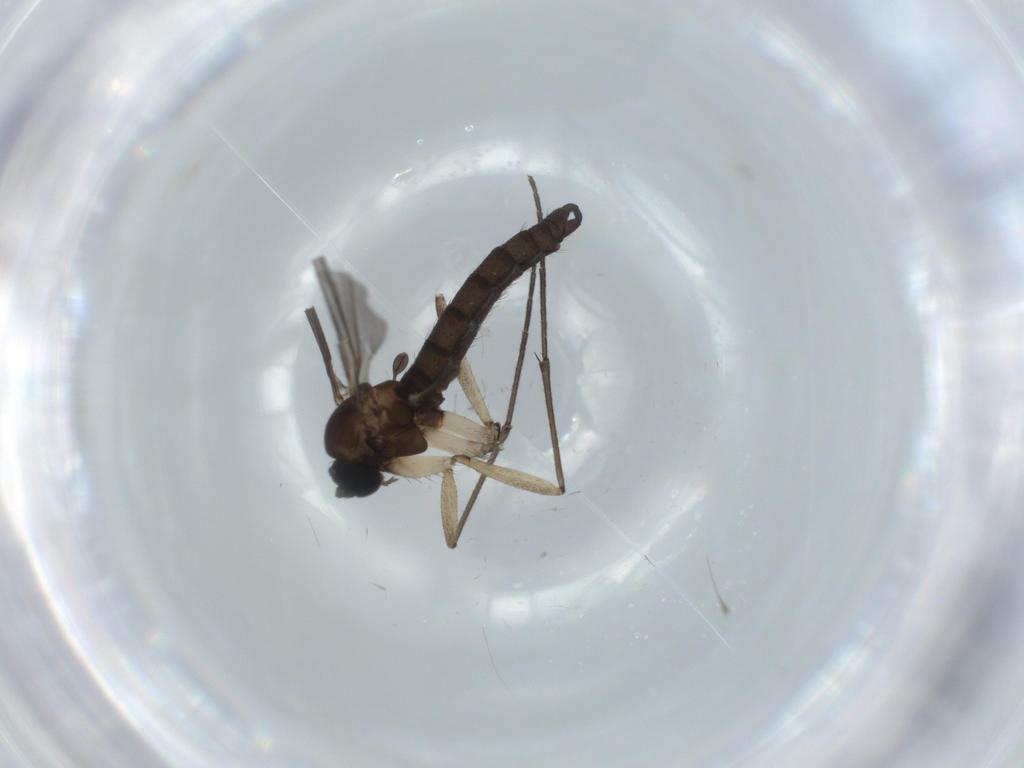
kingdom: Animalia
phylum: Arthropoda
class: Insecta
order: Diptera
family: Sciaridae
